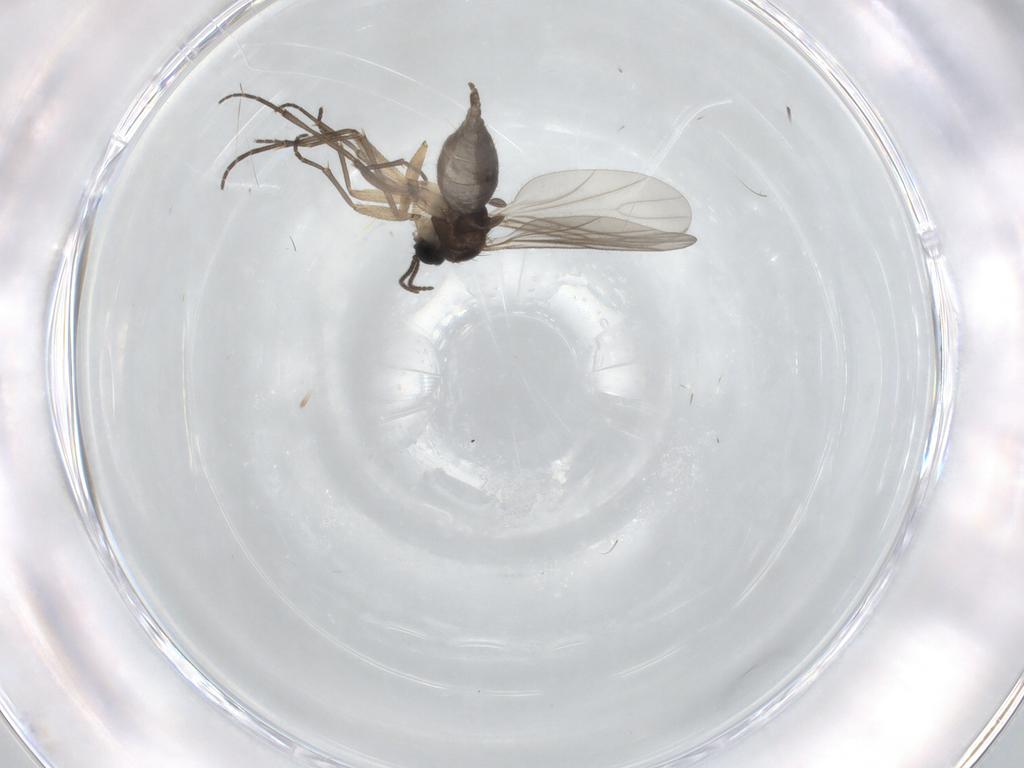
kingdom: Animalia
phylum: Arthropoda
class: Insecta
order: Diptera
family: Sciaridae
